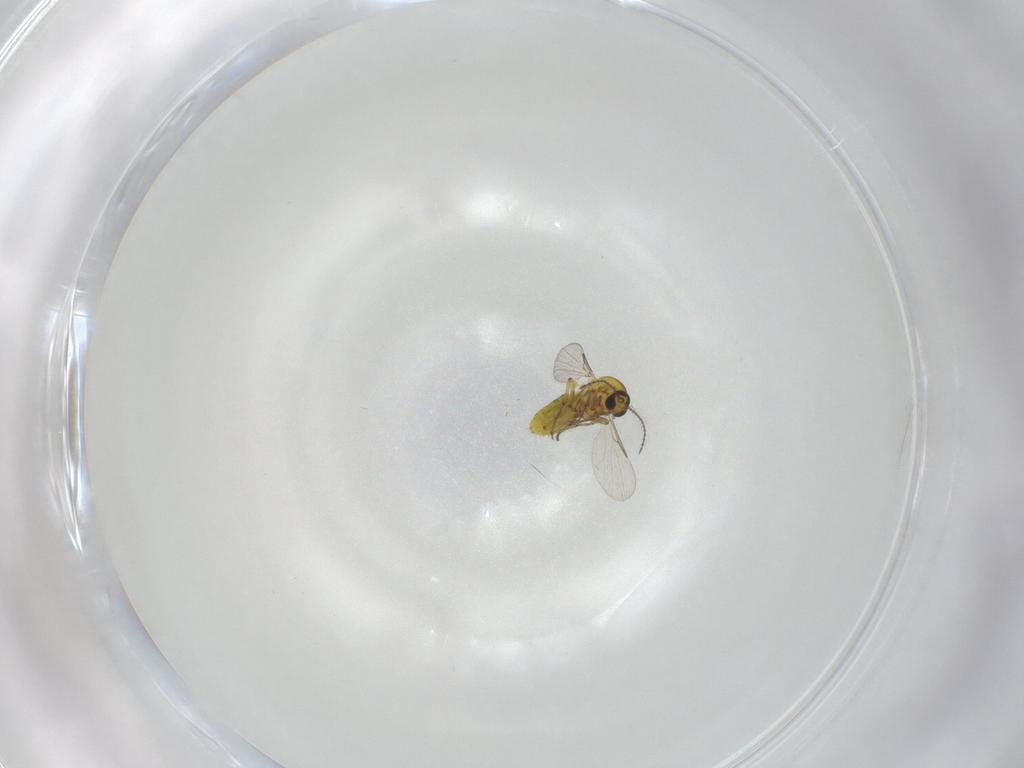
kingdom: Animalia
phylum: Arthropoda
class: Insecta
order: Diptera
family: Ceratopogonidae
